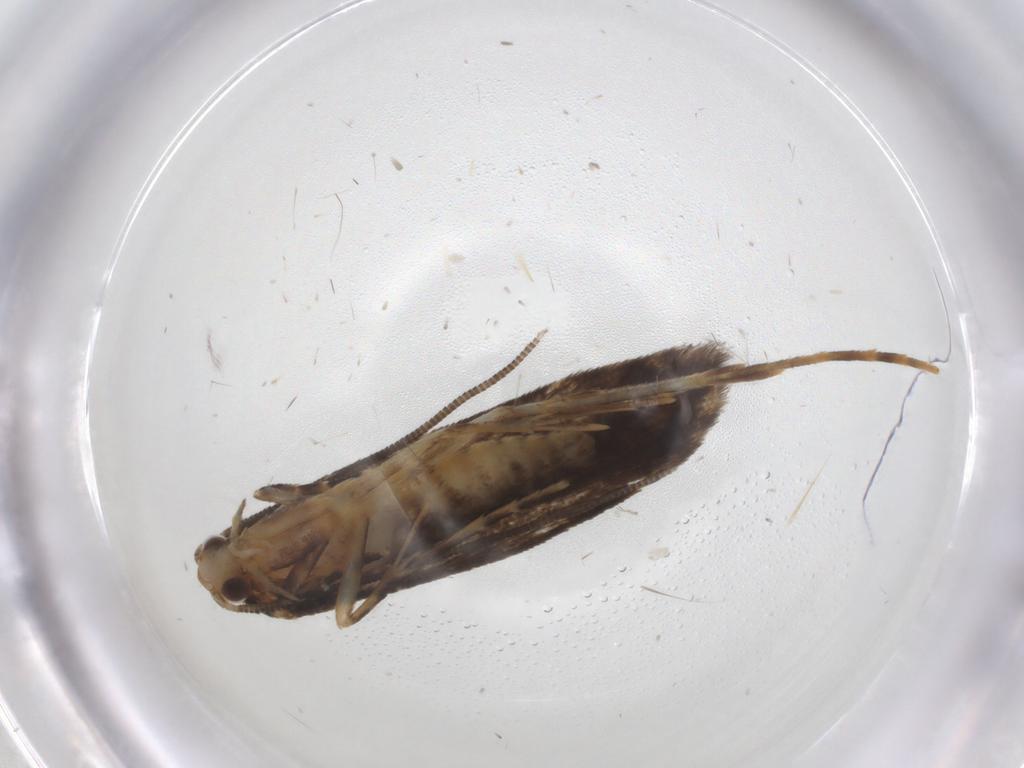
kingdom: Animalia
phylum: Arthropoda
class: Insecta
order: Lepidoptera
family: Tineidae
